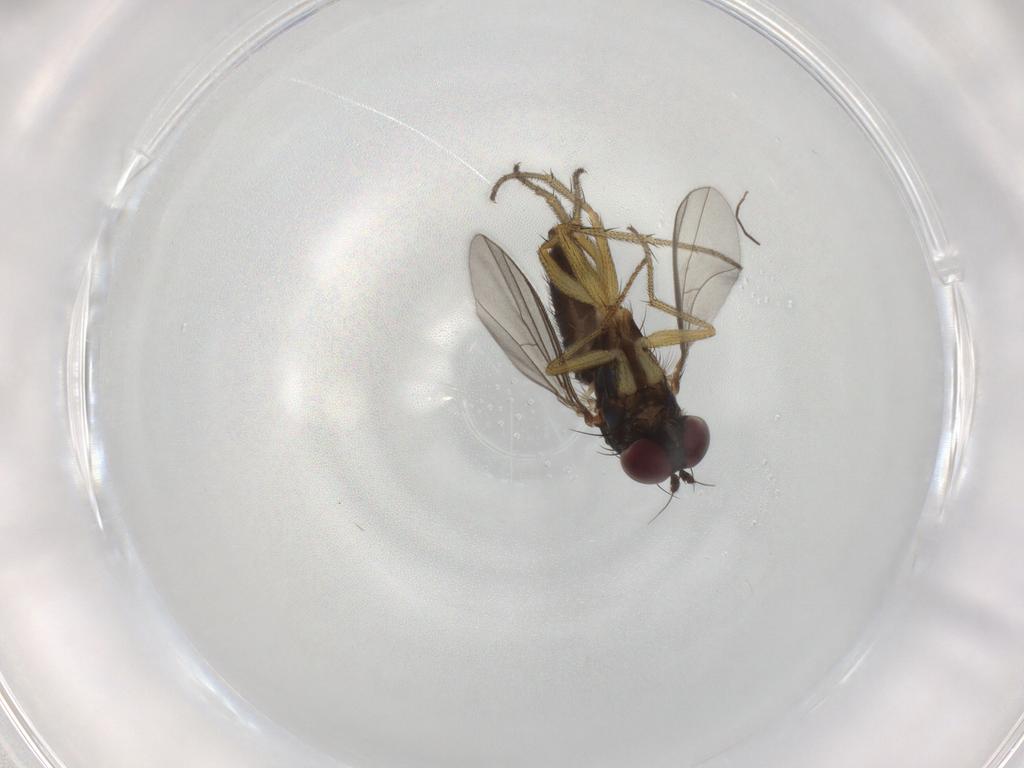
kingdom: Animalia
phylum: Arthropoda
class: Insecta
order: Diptera
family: Dolichopodidae
